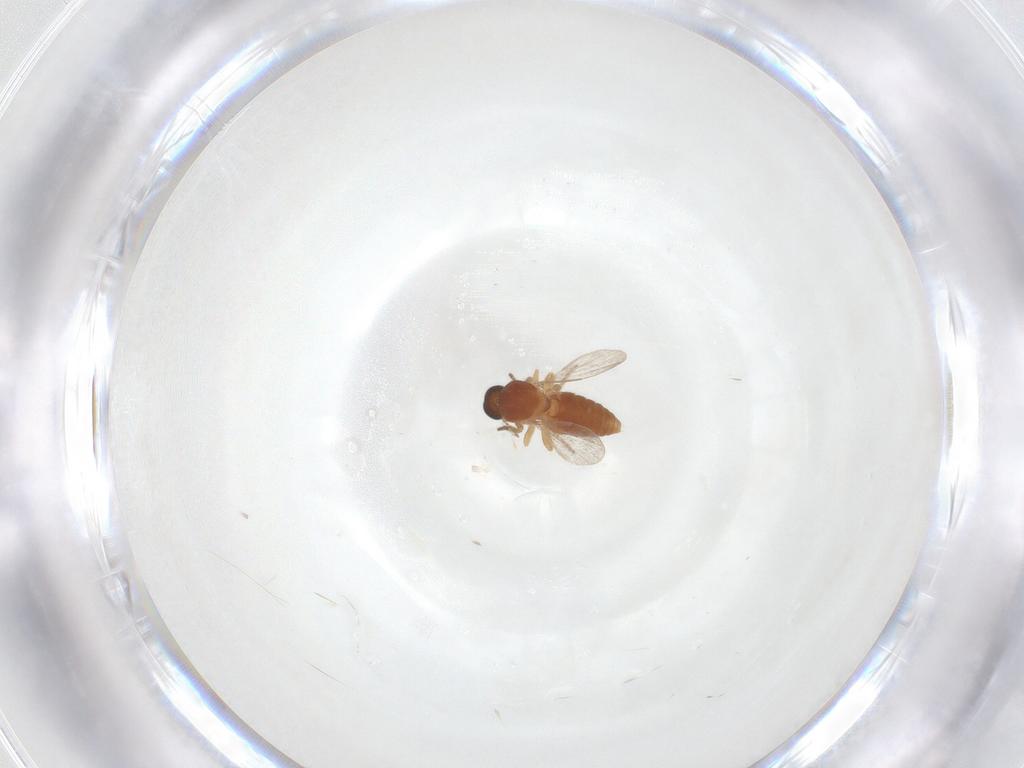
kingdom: Animalia
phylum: Arthropoda
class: Insecta
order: Diptera
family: Ceratopogonidae
